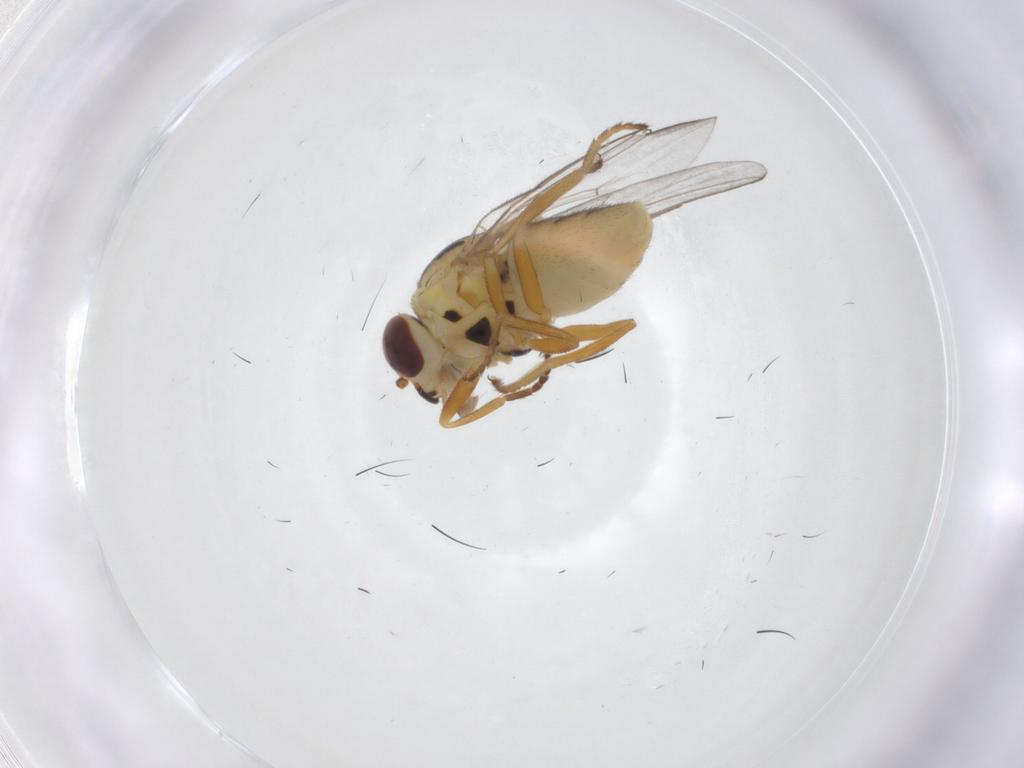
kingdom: Animalia
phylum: Arthropoda
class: Insecta
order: Diptera
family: Chloropidae
